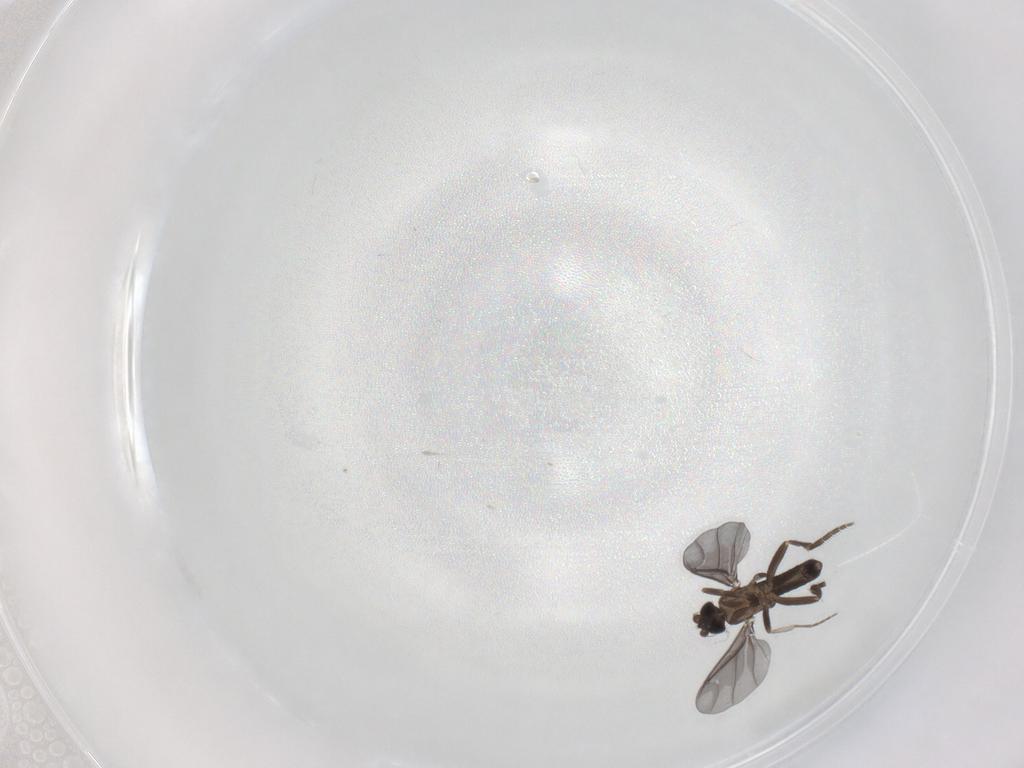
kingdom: Animalia
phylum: Arthropoda
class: Insecta
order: Diptera
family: Phoridae
